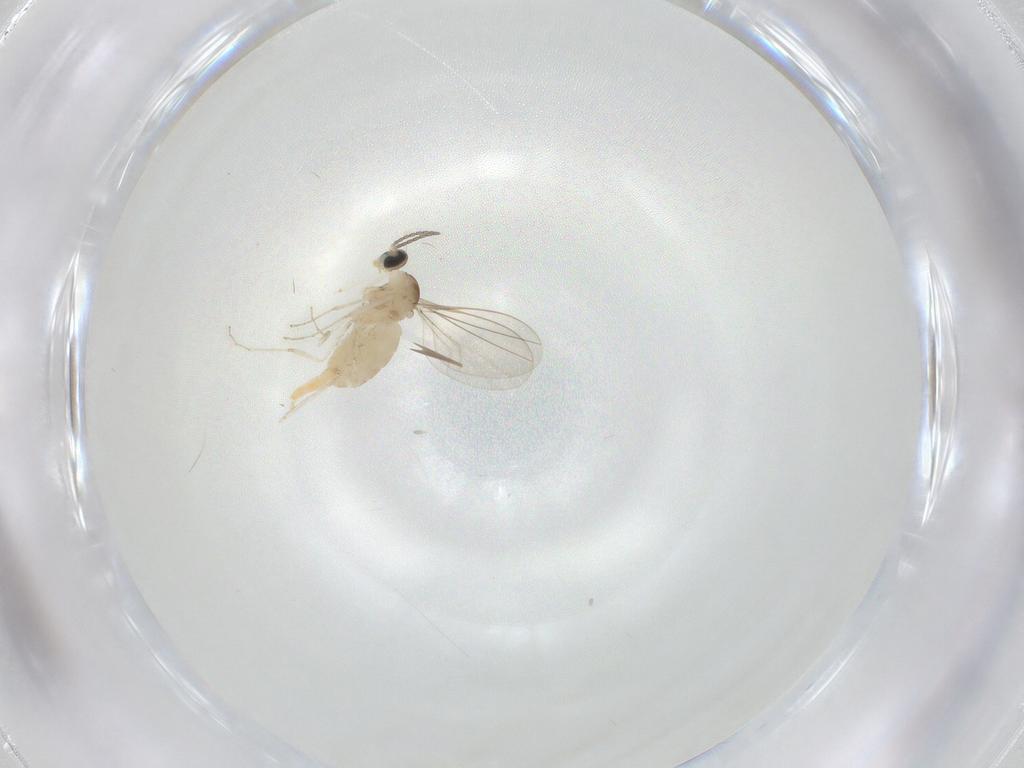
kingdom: Animalia
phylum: Arthropoda
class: Insecta
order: Diptera
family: Cecidomyiidae
